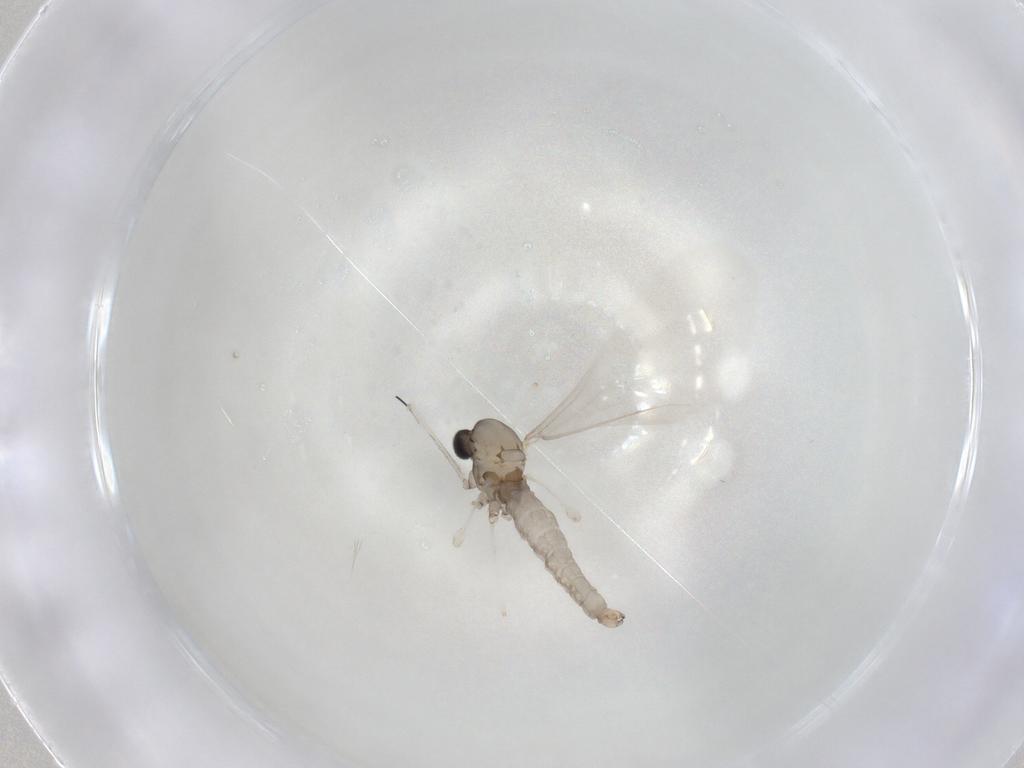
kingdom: Animalia
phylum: Arthropoda
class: Insecta
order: Diptera
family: Cecidomyiidae
